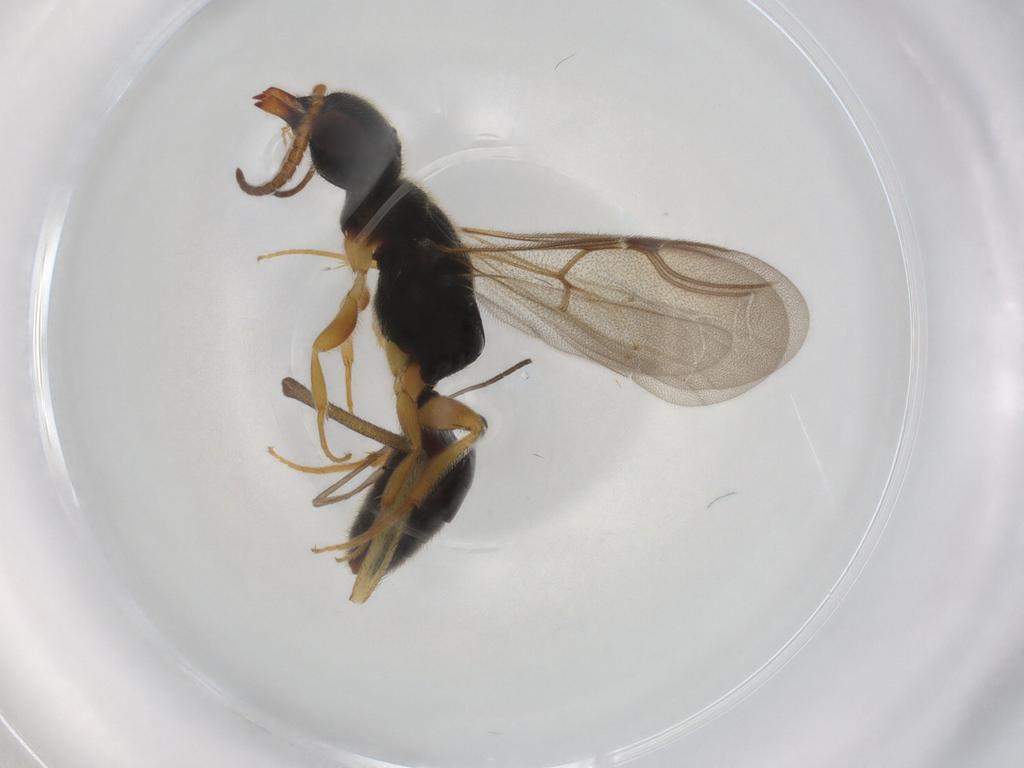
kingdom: Animalia
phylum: Arthropoda
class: Insecta
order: Hymenoptera
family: Bethylidae
